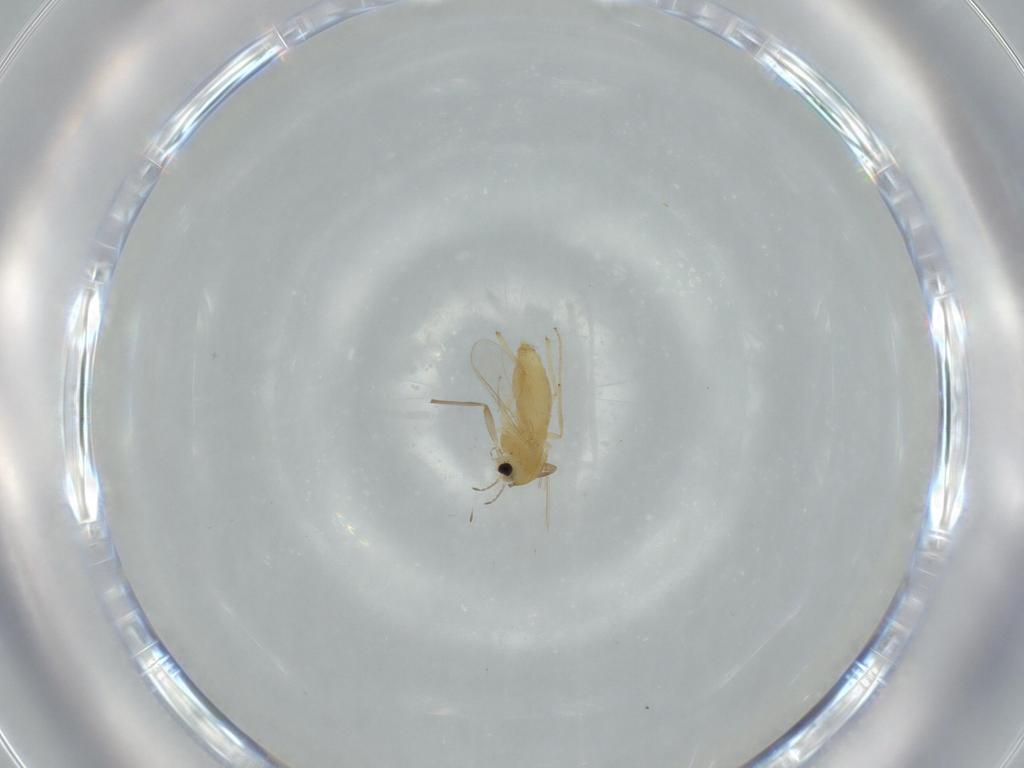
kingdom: Animalia
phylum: Arthropoda
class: Insecta
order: Diptera
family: Chironomidae
